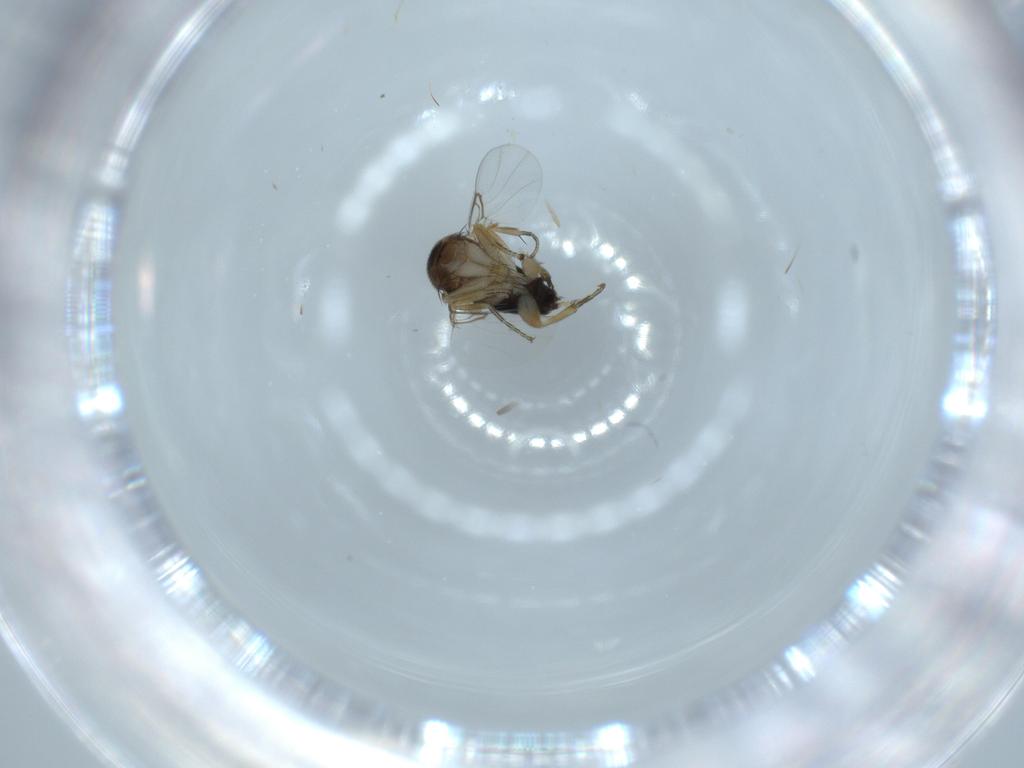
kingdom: Animalia
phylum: Arthropoda
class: Insecta
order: Diptera
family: Phoridae
